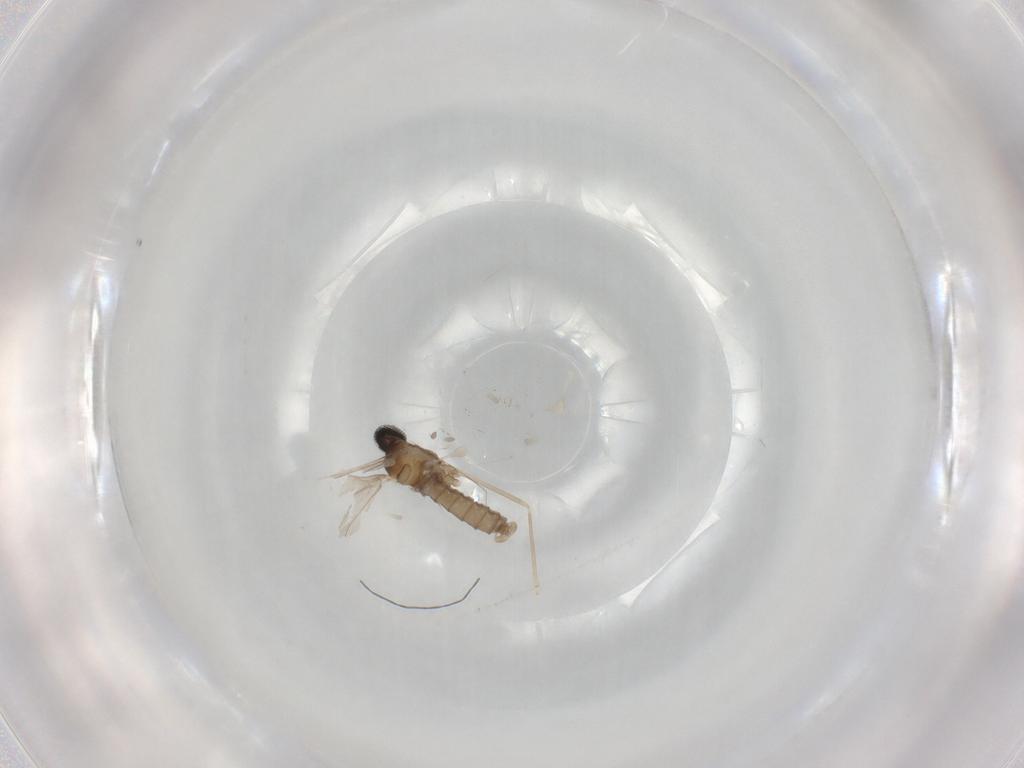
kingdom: Animalia
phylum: Arthropoda
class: Insecta
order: Diptera
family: Cecidomyiidae
